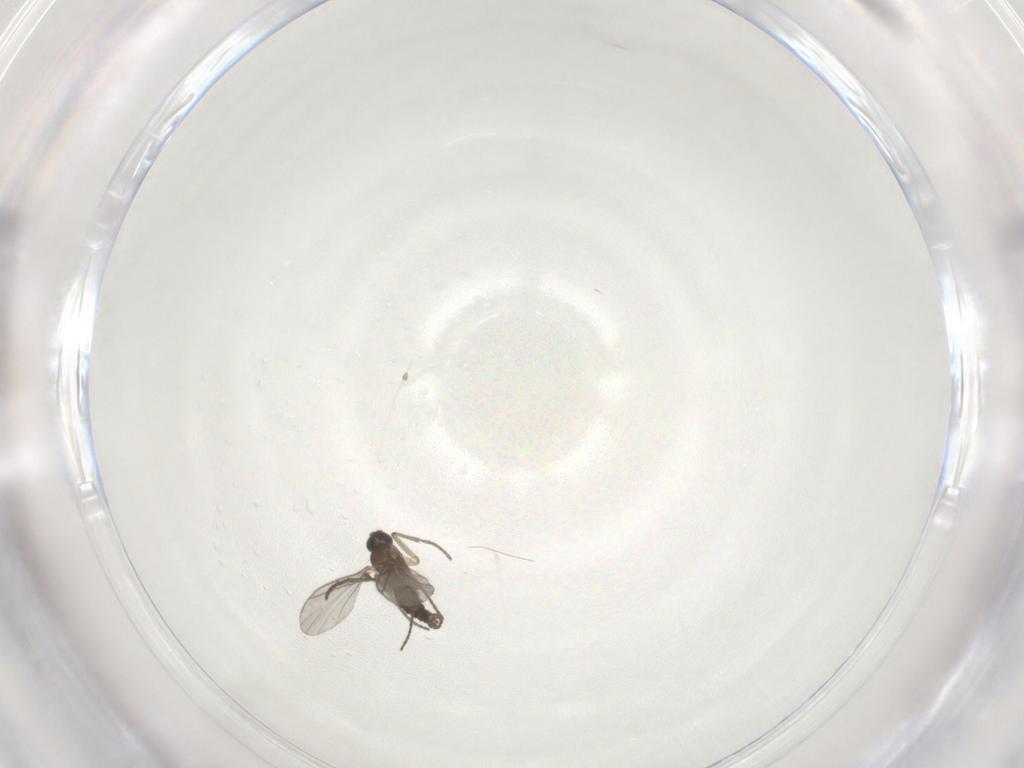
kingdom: Animalia
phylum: Arthropoda
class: Insecta
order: Diptera
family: Sciaridae
